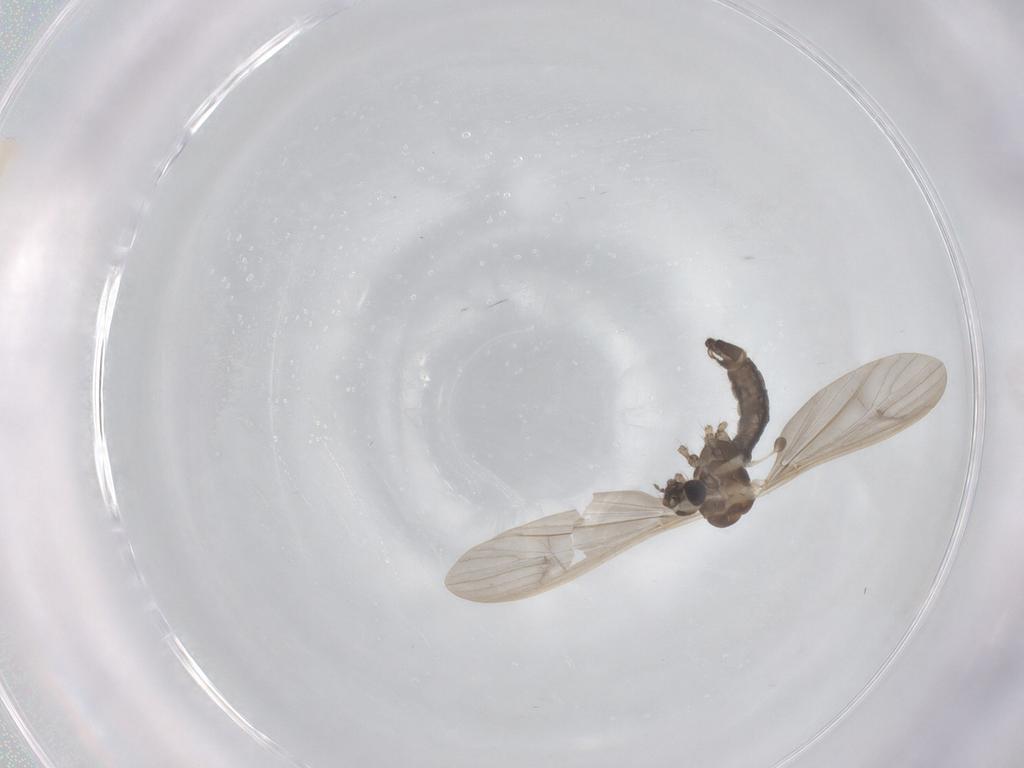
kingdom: Animalia
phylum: Arthropoda
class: Insecta
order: Diptera
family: Limoniidae
